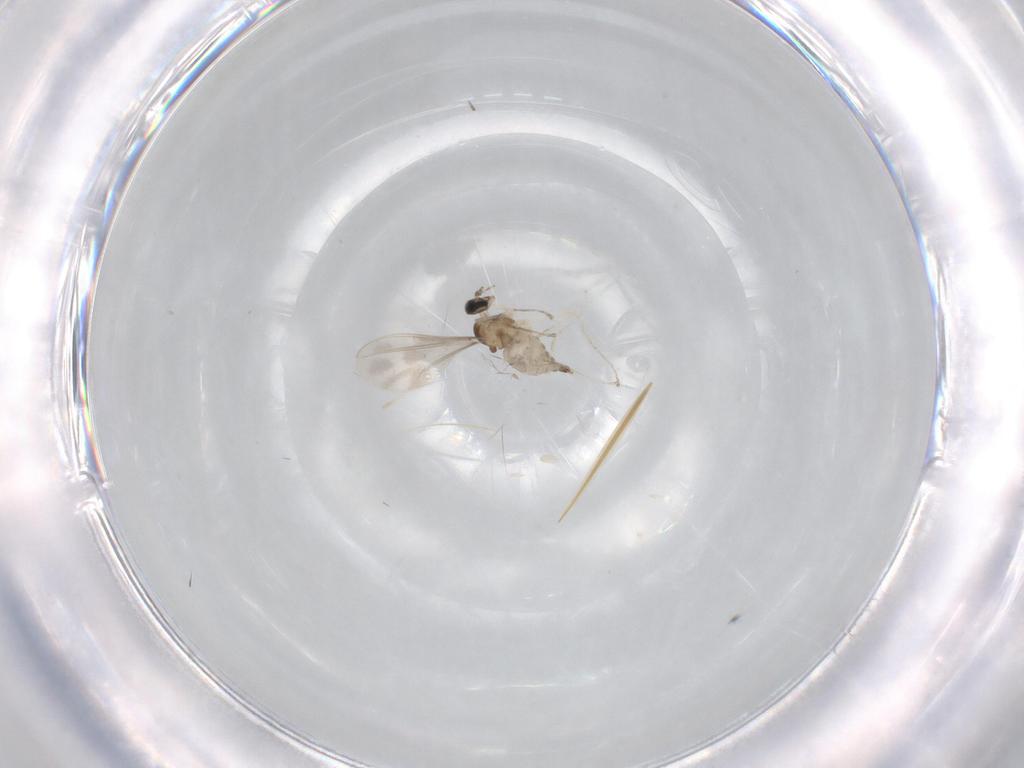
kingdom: Animalia
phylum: Arthropoda
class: Insecta
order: Diptera
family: Cecidomyiidae
